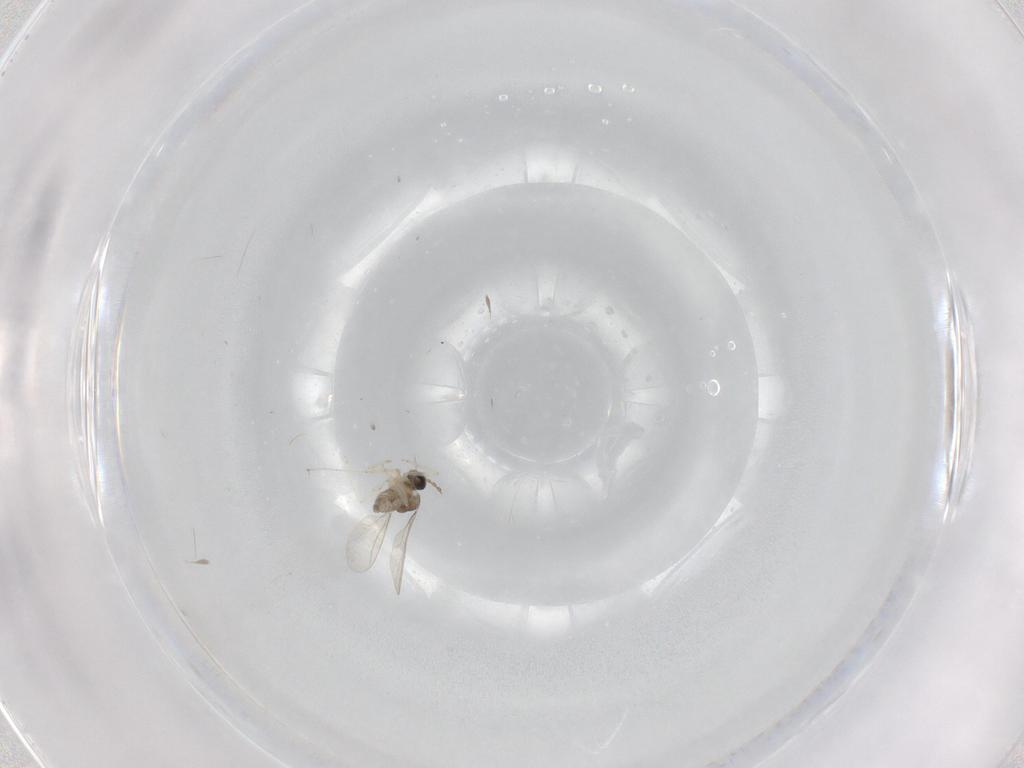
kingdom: Animalia
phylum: Arthropoda
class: Insecta
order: Diptera
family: Cecidomyiidae
